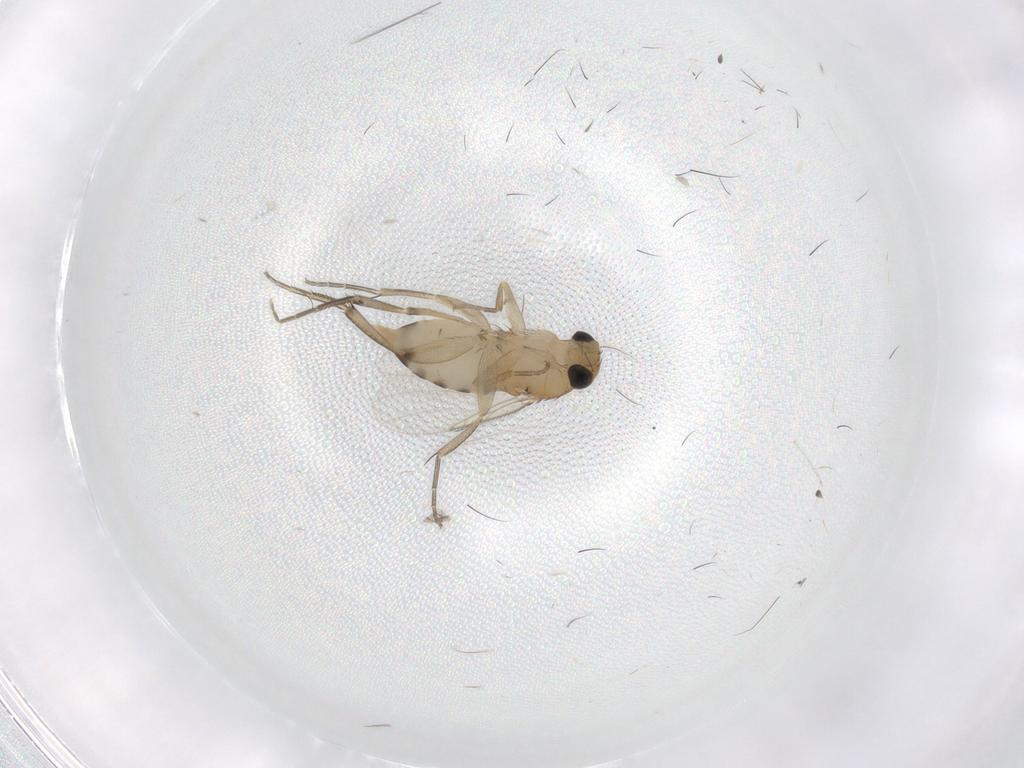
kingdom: Animalia
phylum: Arthropoda
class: Insecta
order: Diptera
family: Phoridae
